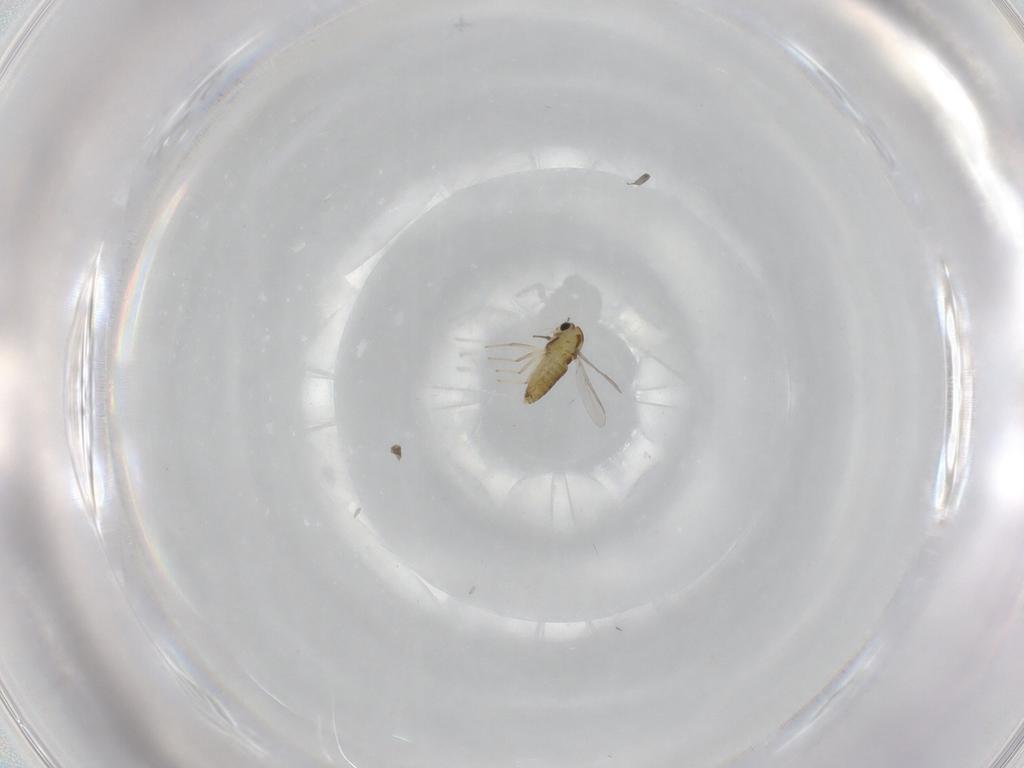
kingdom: Animalia
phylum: Arthropoda
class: Insecta
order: Diptera
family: Chironomidae
